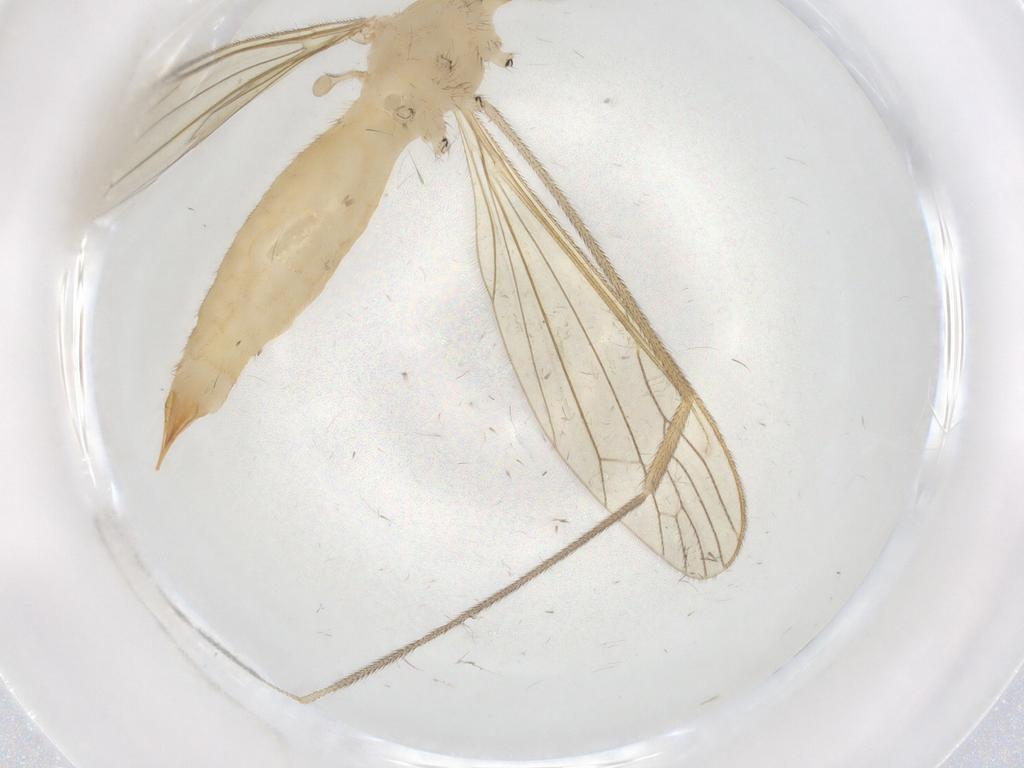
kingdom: Animalia
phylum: Arthropoda
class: Insecta
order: Diptera
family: Limoniidae
